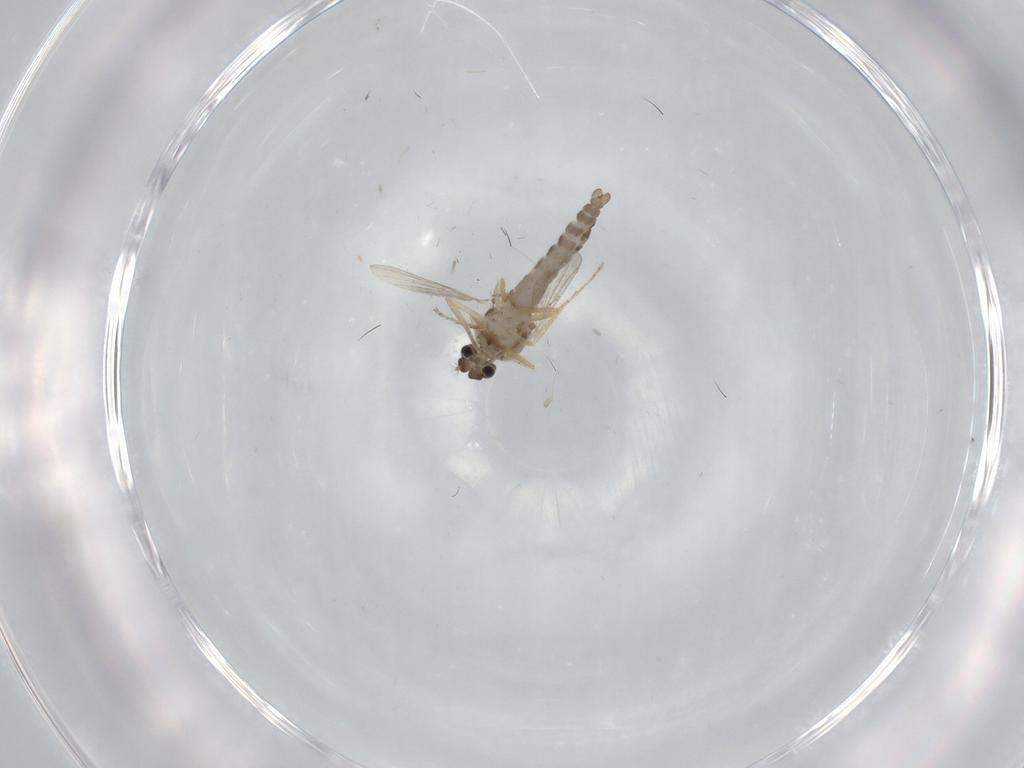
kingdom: Animalia
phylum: Arthropoda
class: Insecta
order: Diptera
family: Ceratopogonidae
